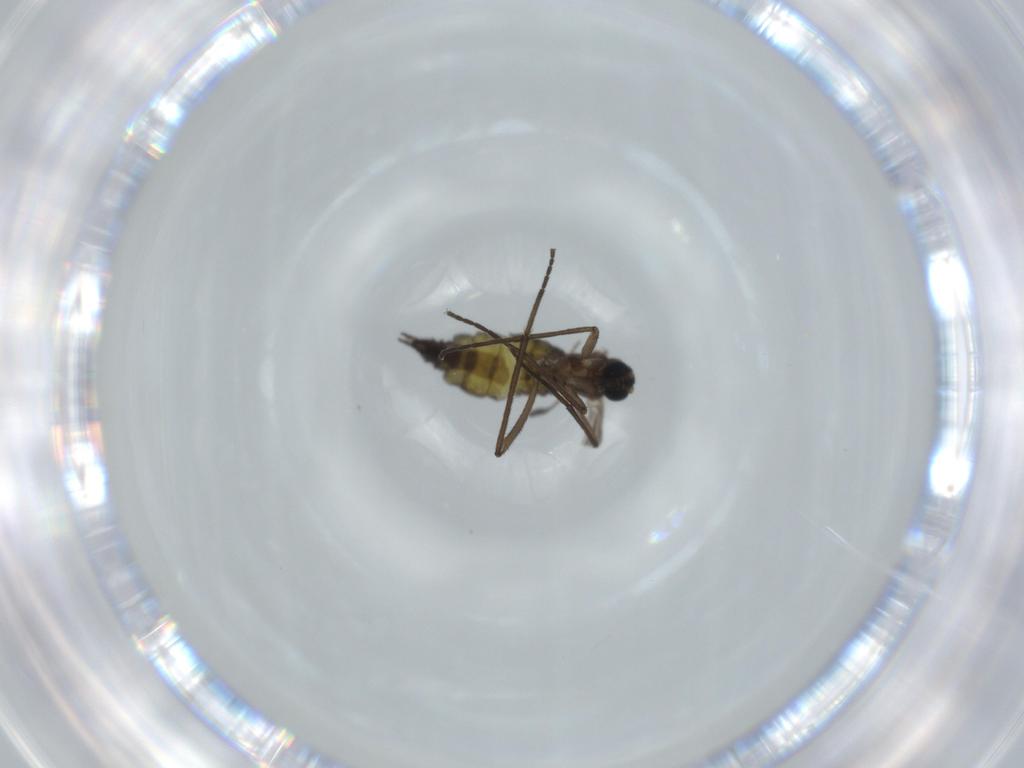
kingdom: Animalia
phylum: Arthropoda
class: Insecta
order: Diptera
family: Sciaridae
